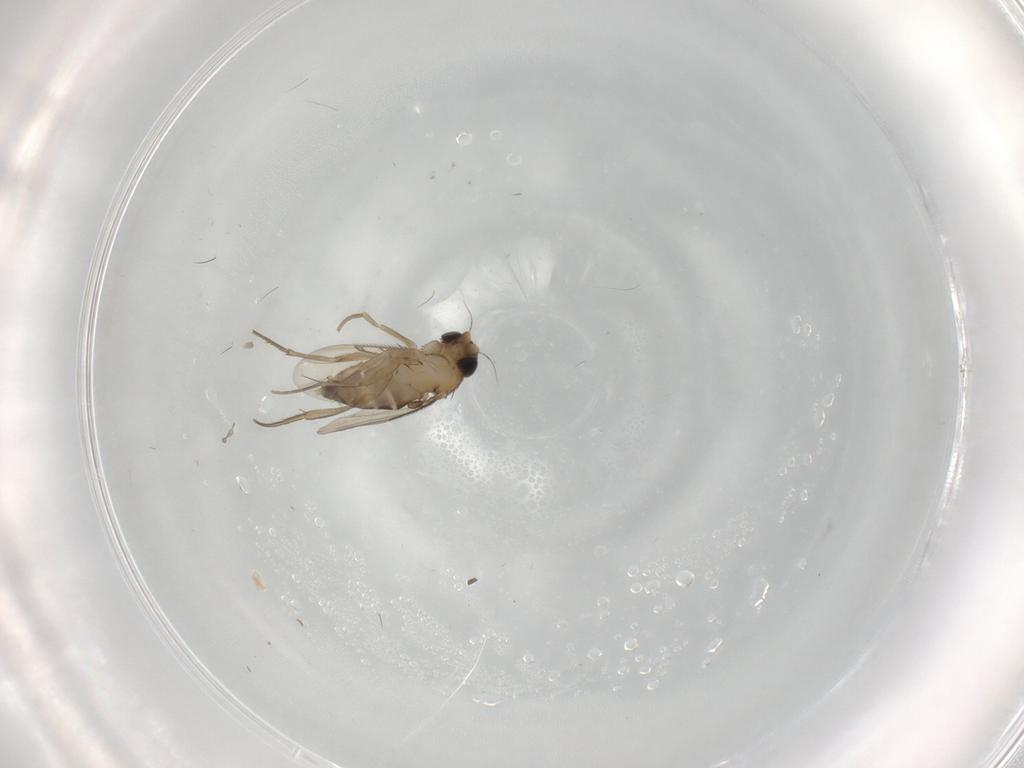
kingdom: Animalia
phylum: Arthropoda
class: Insecta
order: Diptera
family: Phoridae
